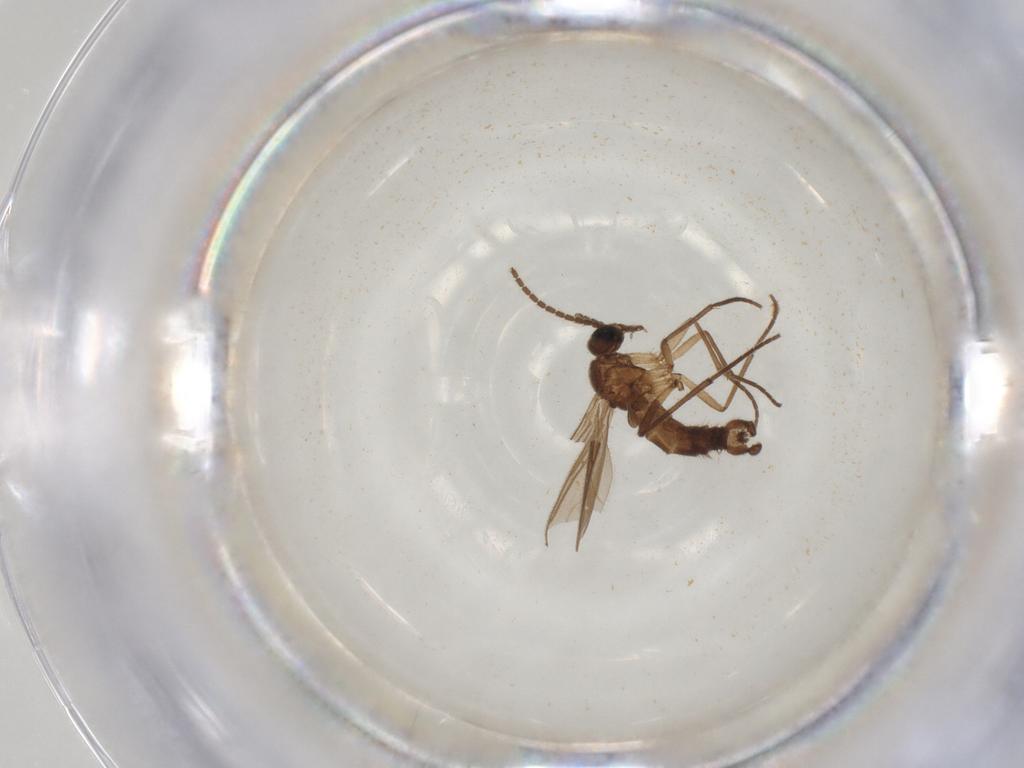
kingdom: Animalia
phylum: Arthropoda
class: Insecta
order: Diptera
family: Sciaridae
